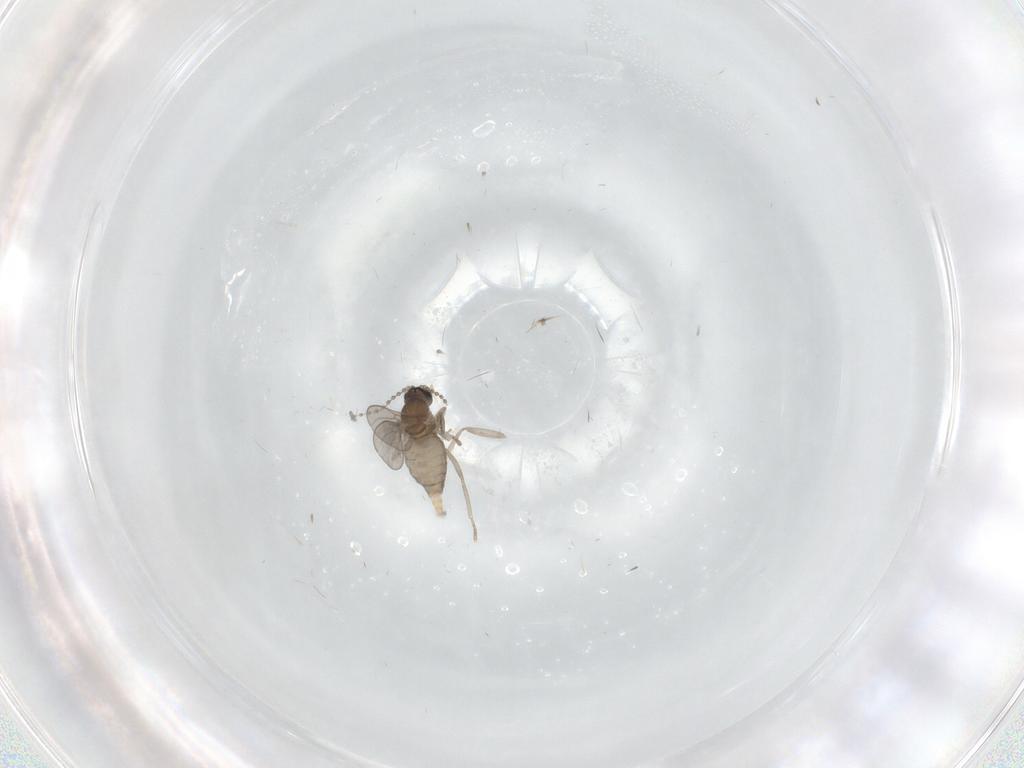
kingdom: Animalia
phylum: Arthropoda
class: Insecta
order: Diptera
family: Cecidomyiidae
